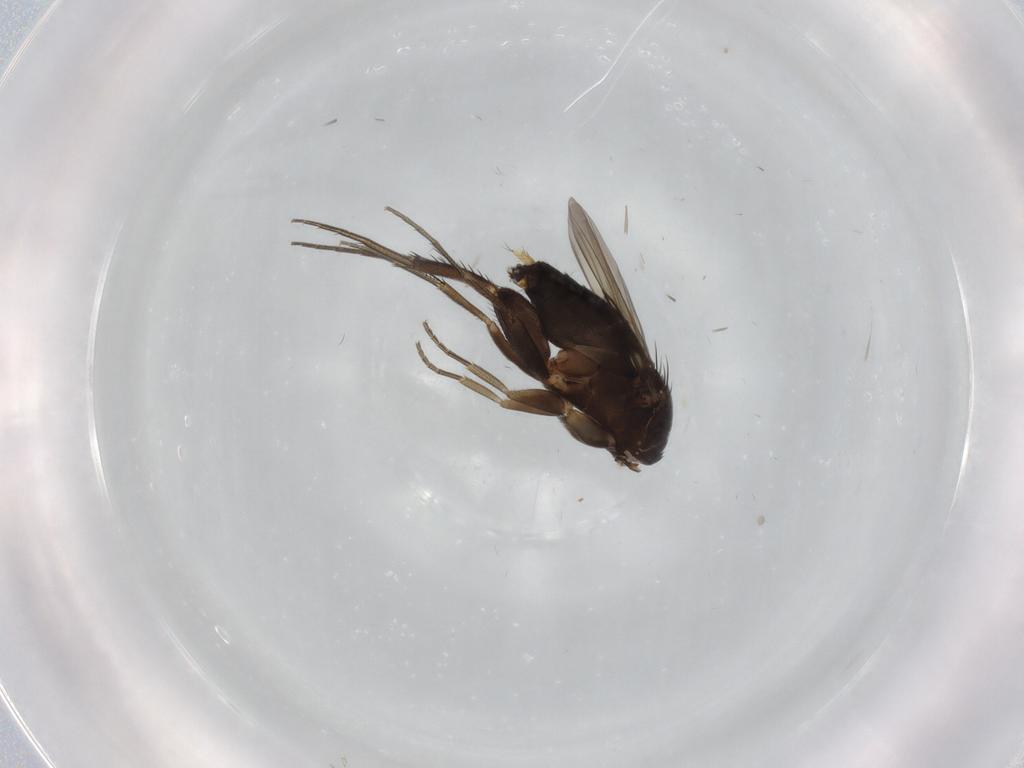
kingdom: Animalia
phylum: Arthropoda
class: Insecta
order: Diptera
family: Phoridae
